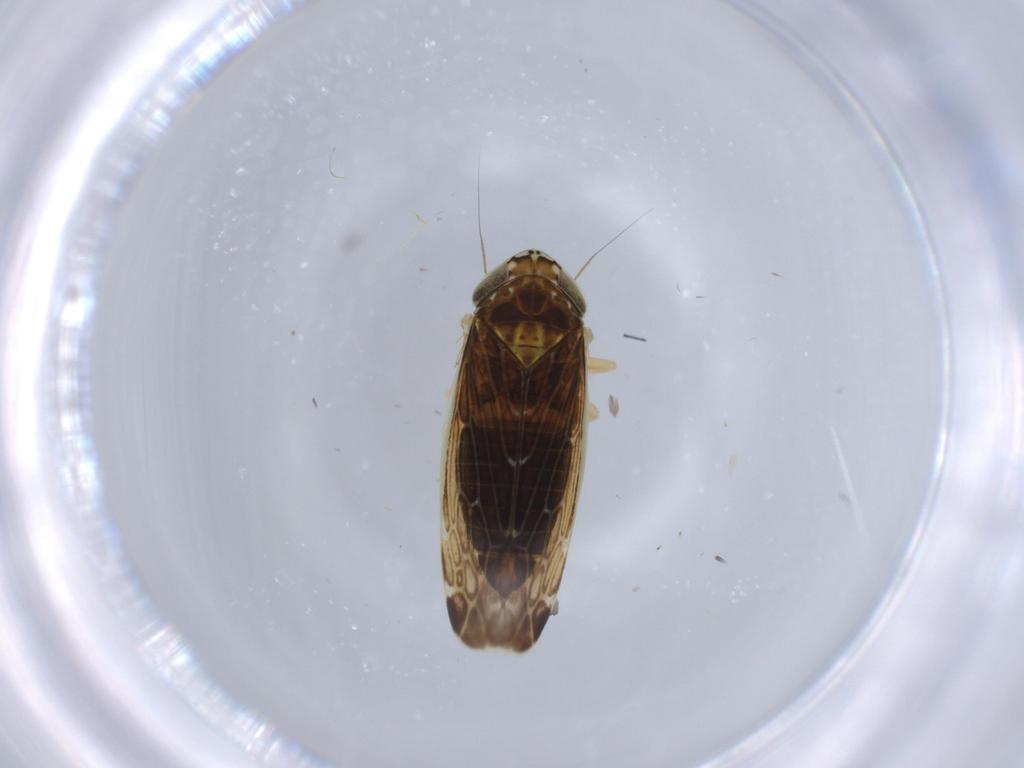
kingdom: Animalia
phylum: Arthropoda
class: Insecta
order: Hemiptera
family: Cicadellidae
